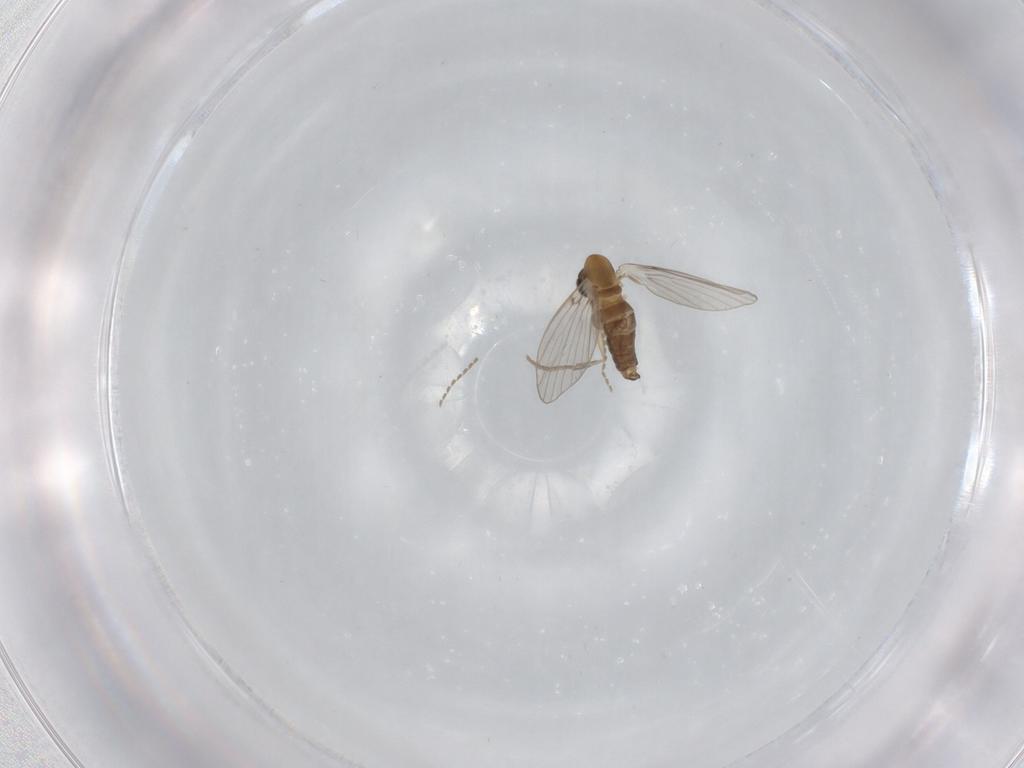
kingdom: Animalia
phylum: Arthropoda
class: Insecta
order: Diptera
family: Psychodidae
